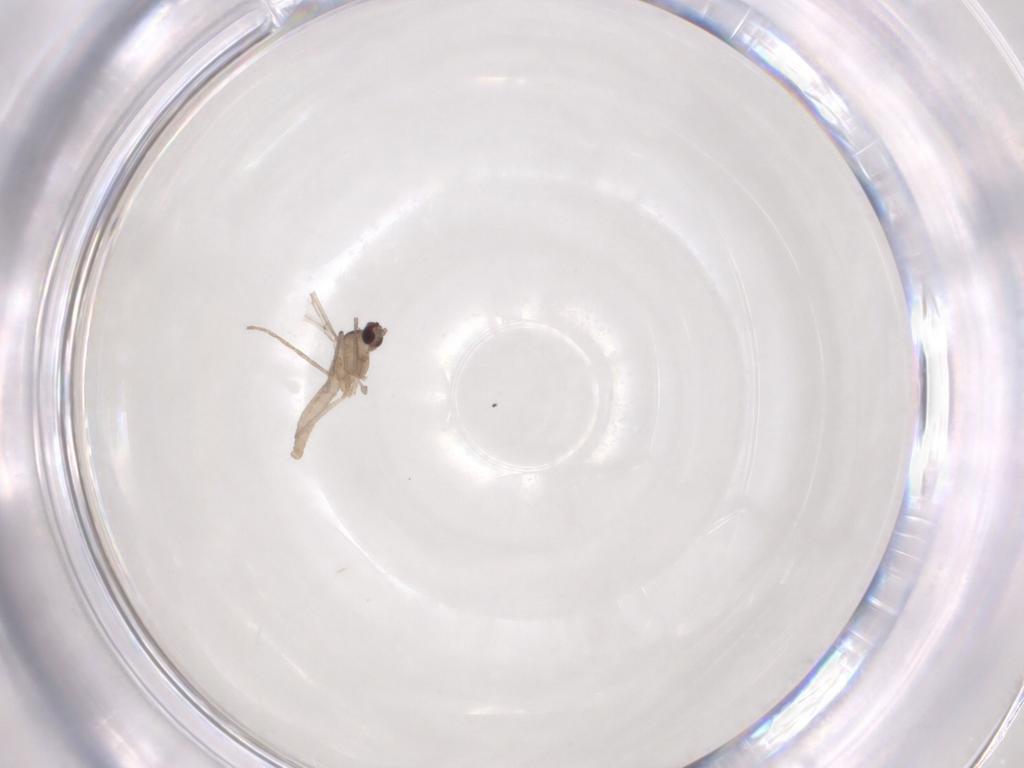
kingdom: Animalia
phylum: Arthropoda
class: Insecta
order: Diptera
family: Cecidomyiidae
